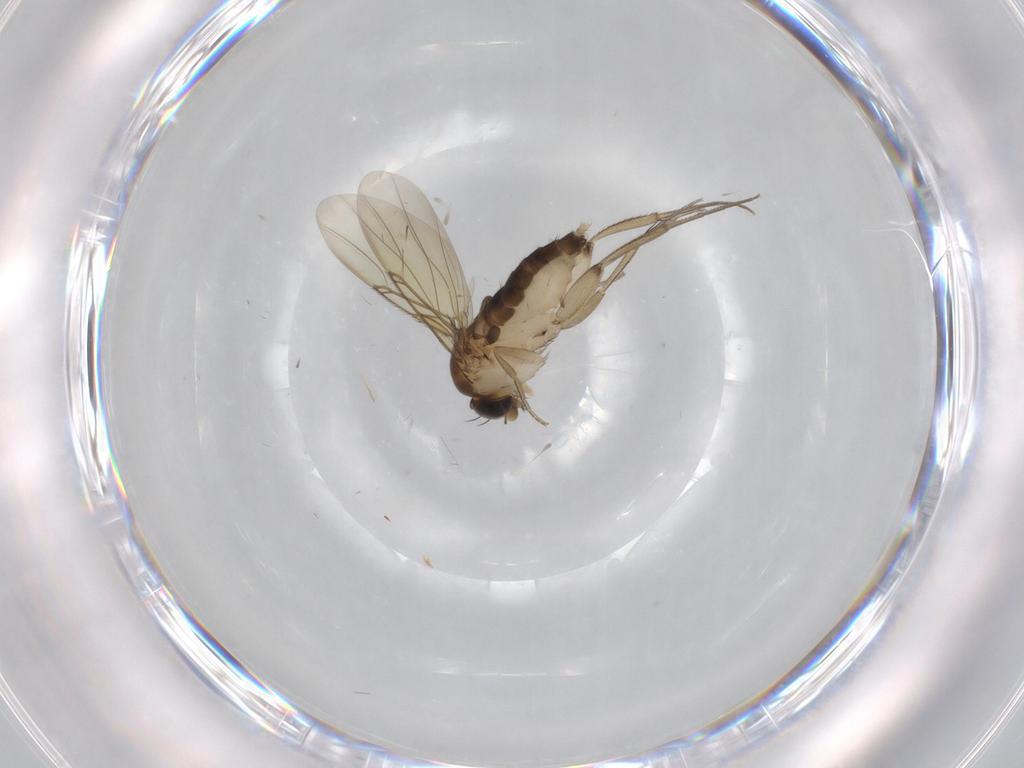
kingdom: Animalia
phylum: Arthropoda
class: Insecta
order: Diptera
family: Phoridae
